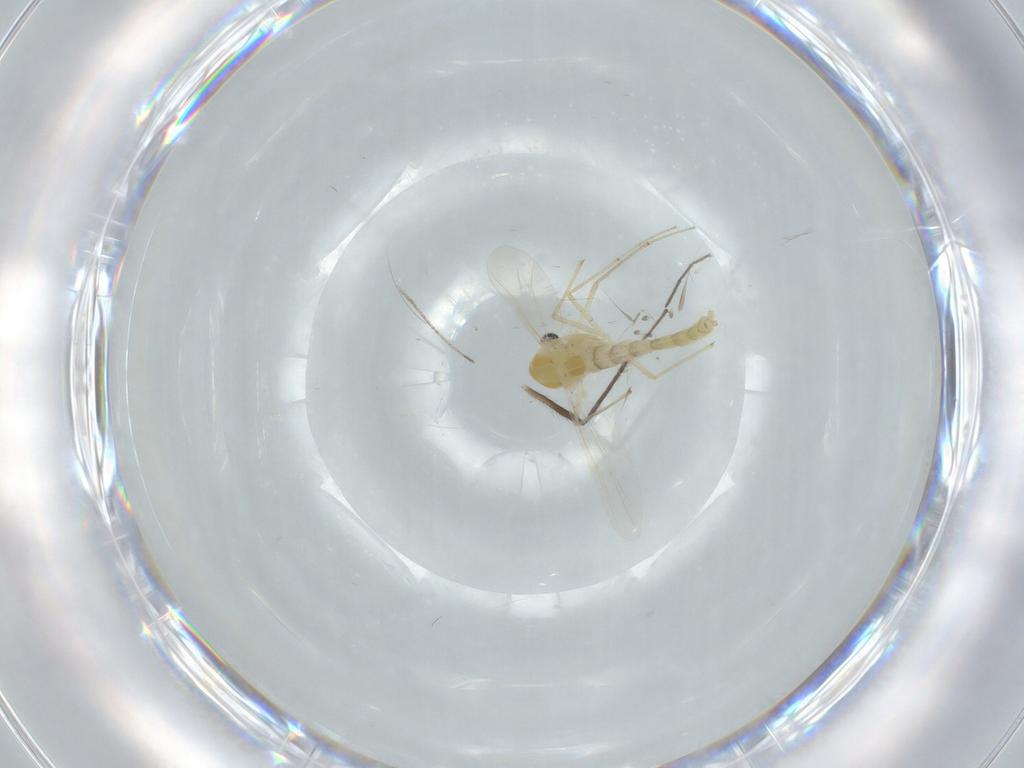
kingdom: Animalia
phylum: Arthropoda
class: Insecta
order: Diptera
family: Chironomidae
